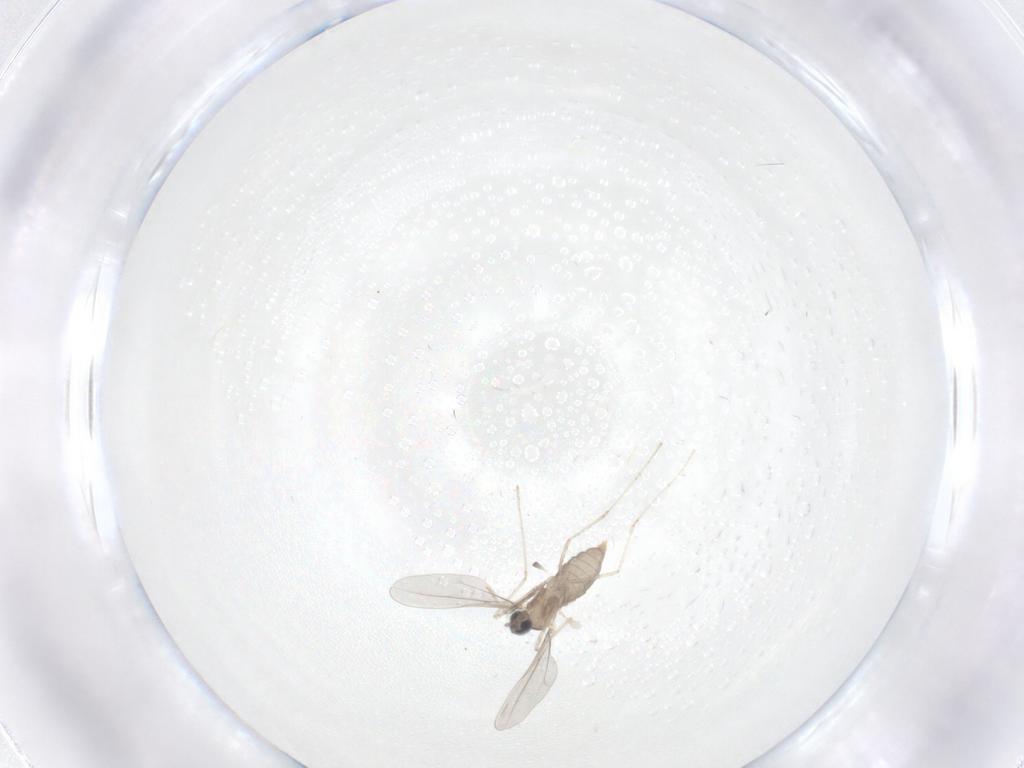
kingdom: Animalia
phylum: Arthropoda
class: Insecta
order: Diptera
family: Cecidomyiidae
